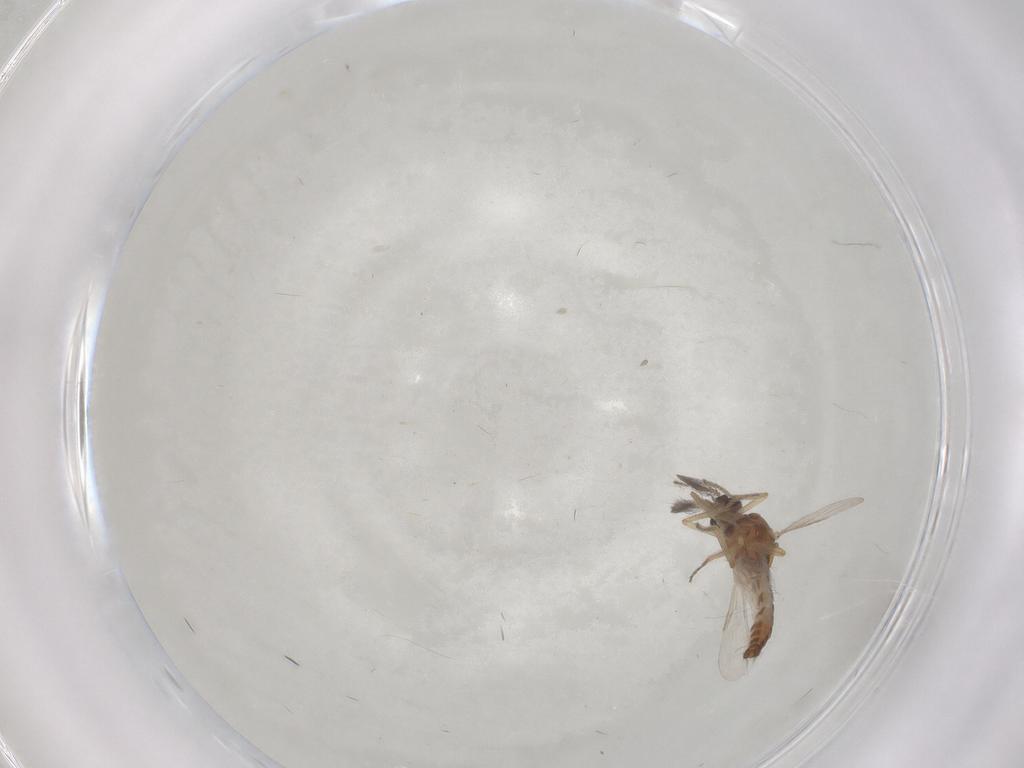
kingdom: Animalia
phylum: Arthropoda
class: Insecta
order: Diptera
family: Ceratopogonidae
